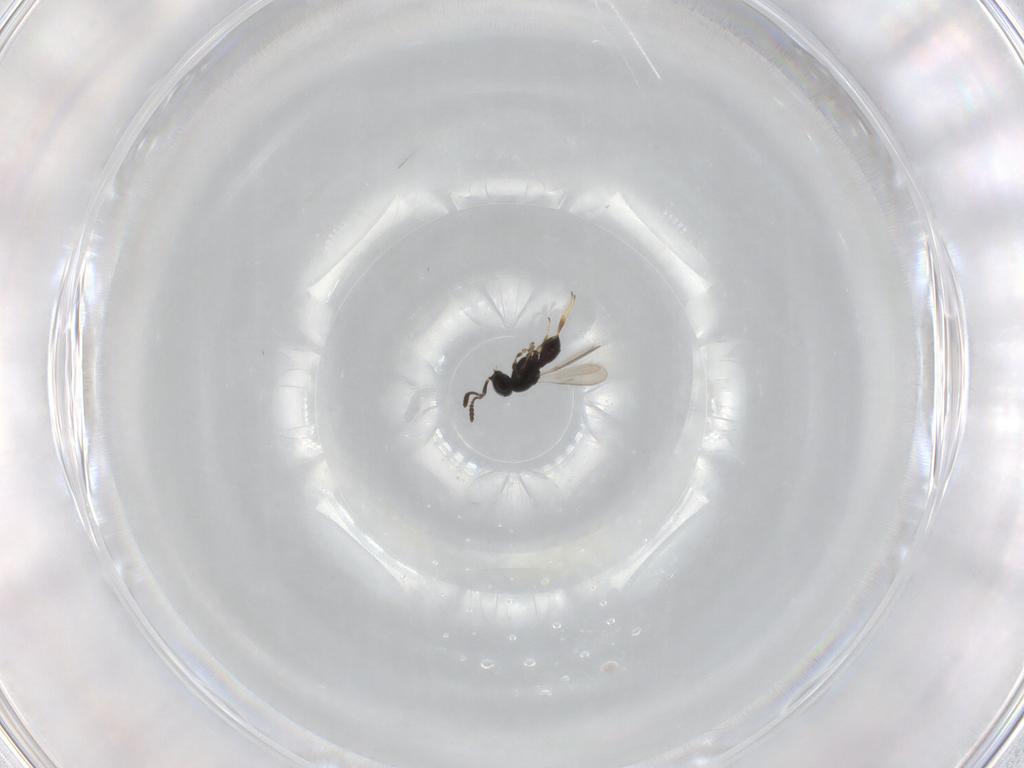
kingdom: Animalia
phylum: Arthropoda
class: Insecta
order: Hymenoptera
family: Scelionidae
